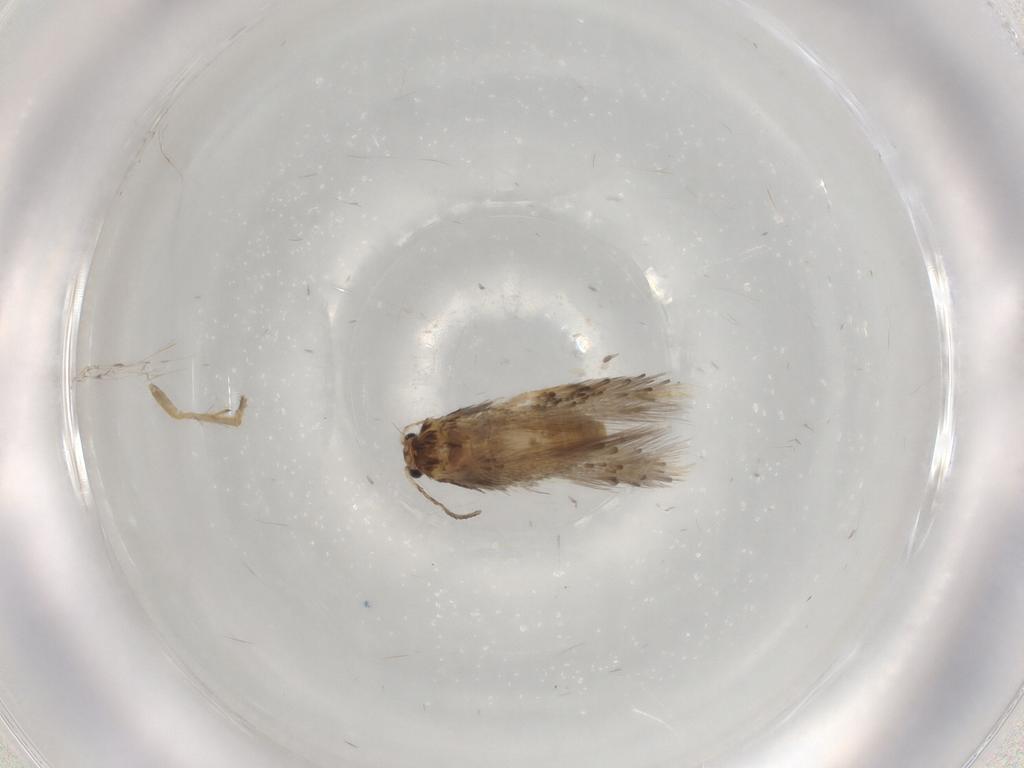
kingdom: Animalia
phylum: Arthropoda
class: Insecta
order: Lepidoptera
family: Nepticulidae
